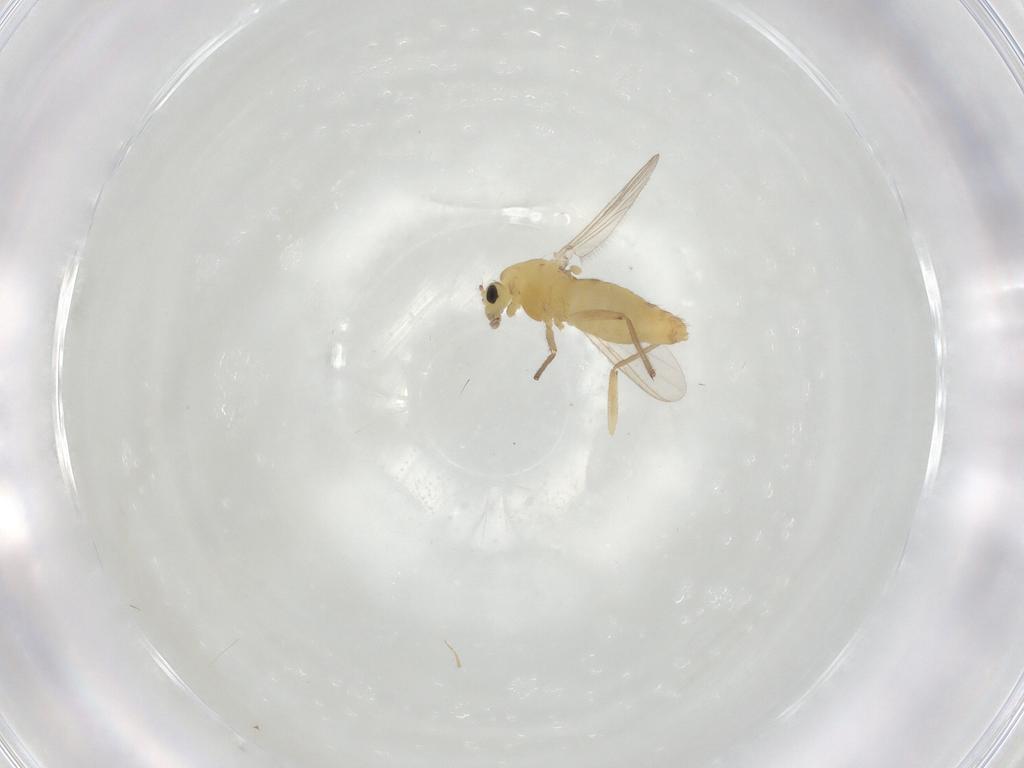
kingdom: Animalia
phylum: Arthropoda
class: Insecta
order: Diptera
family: Chironomidae
